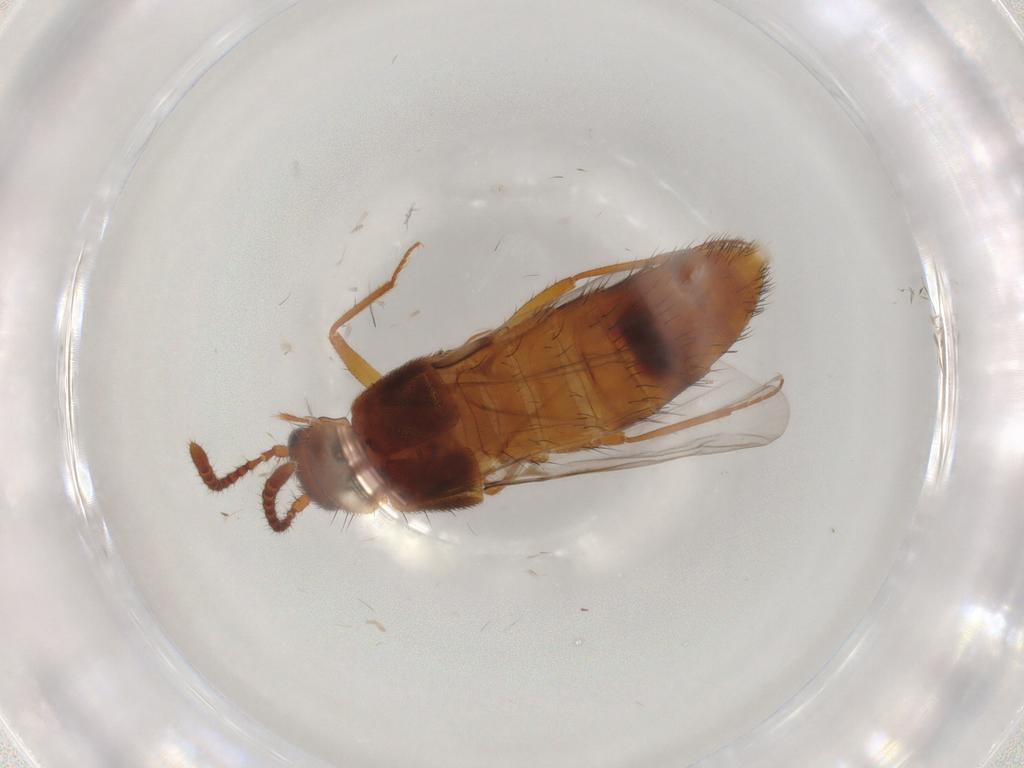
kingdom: Animalia
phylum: Arthropoda
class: Insecta
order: Coleoptera
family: Staphylinidae
